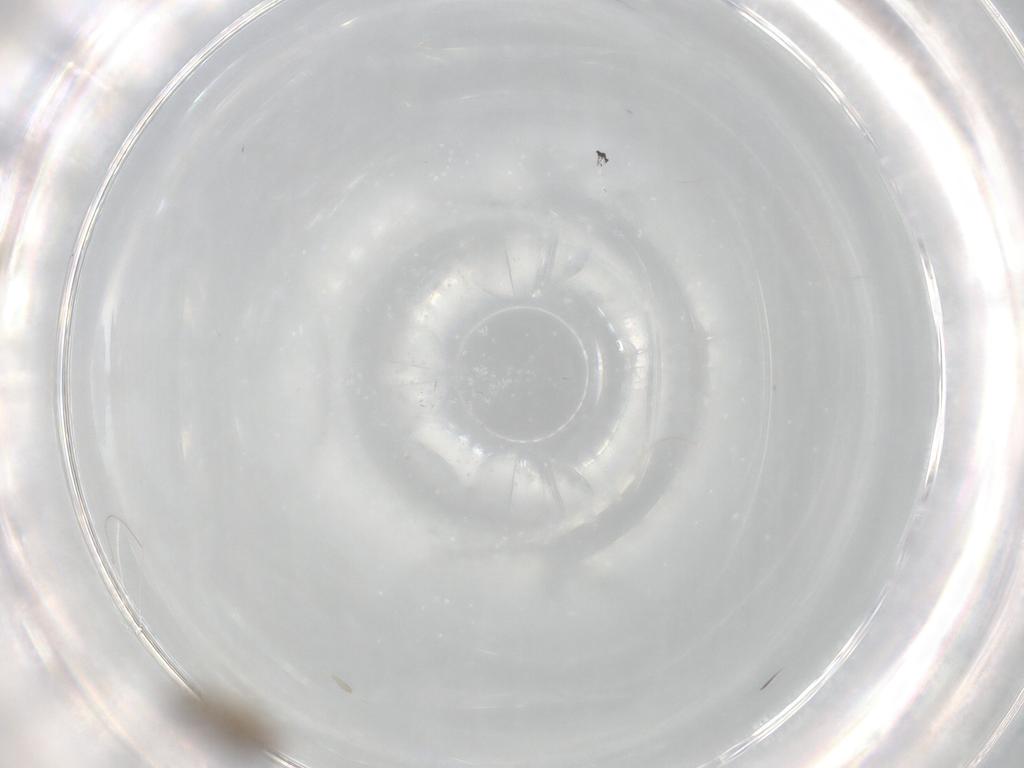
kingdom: Animalia
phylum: Arthropoda
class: Insecta
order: Diptera
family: Cecidomyiidae
